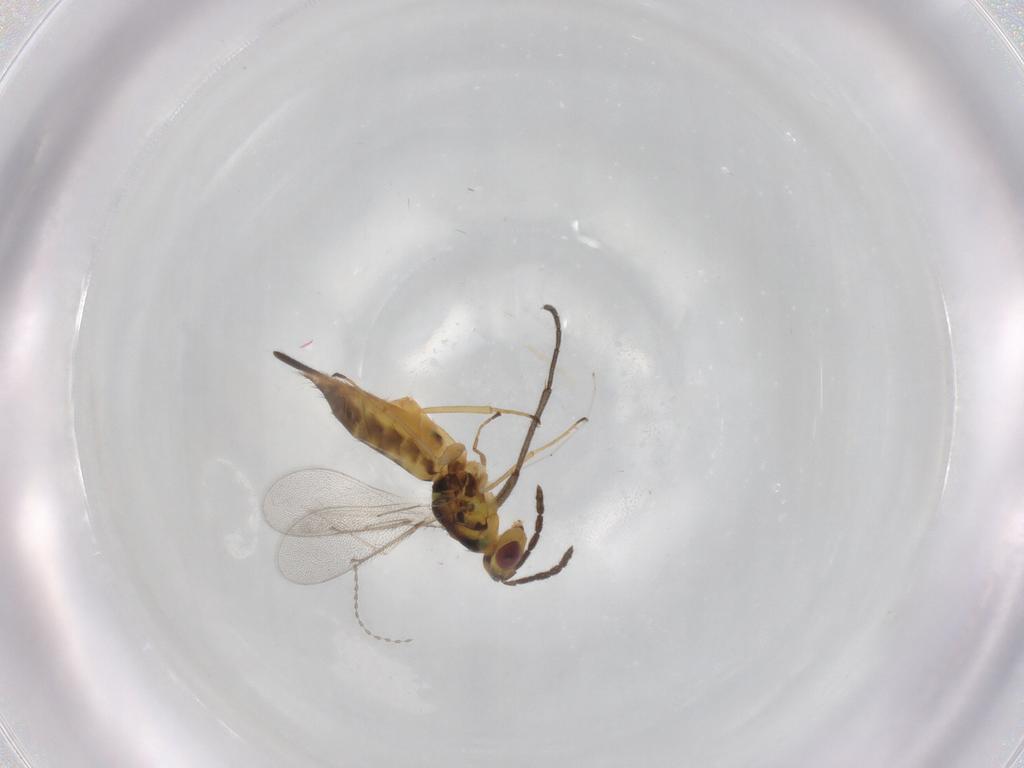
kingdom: Animalia
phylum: Arthropoda
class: Insecta
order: Hymenoptera
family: Eulophidae
